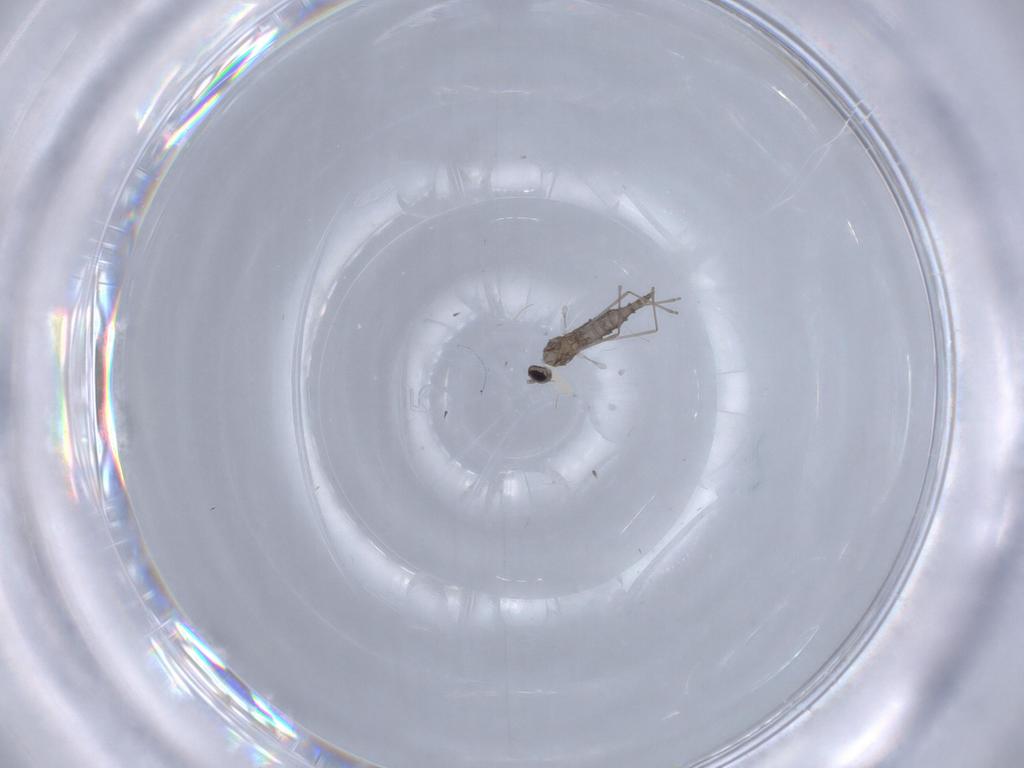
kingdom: Animalia
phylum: Arthropoda
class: Insecta
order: Diptera
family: Cecidomyiidae
